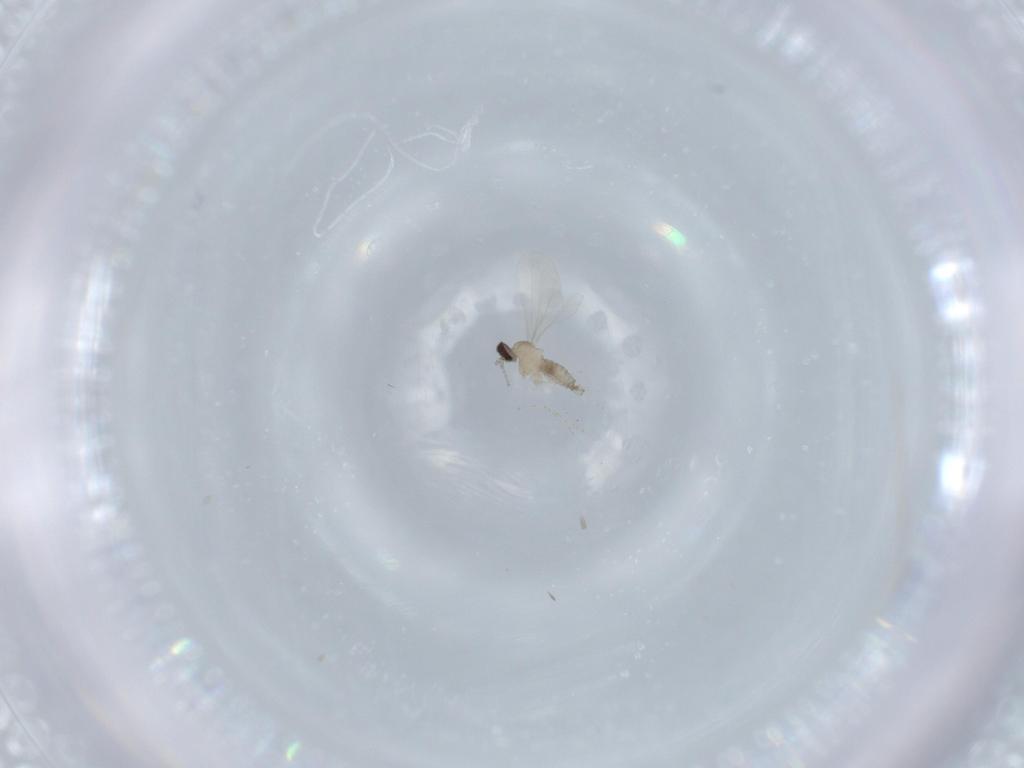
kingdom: Animalia
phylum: Arthropoda
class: Insecta
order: Diptera
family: Cecidomyiidae
